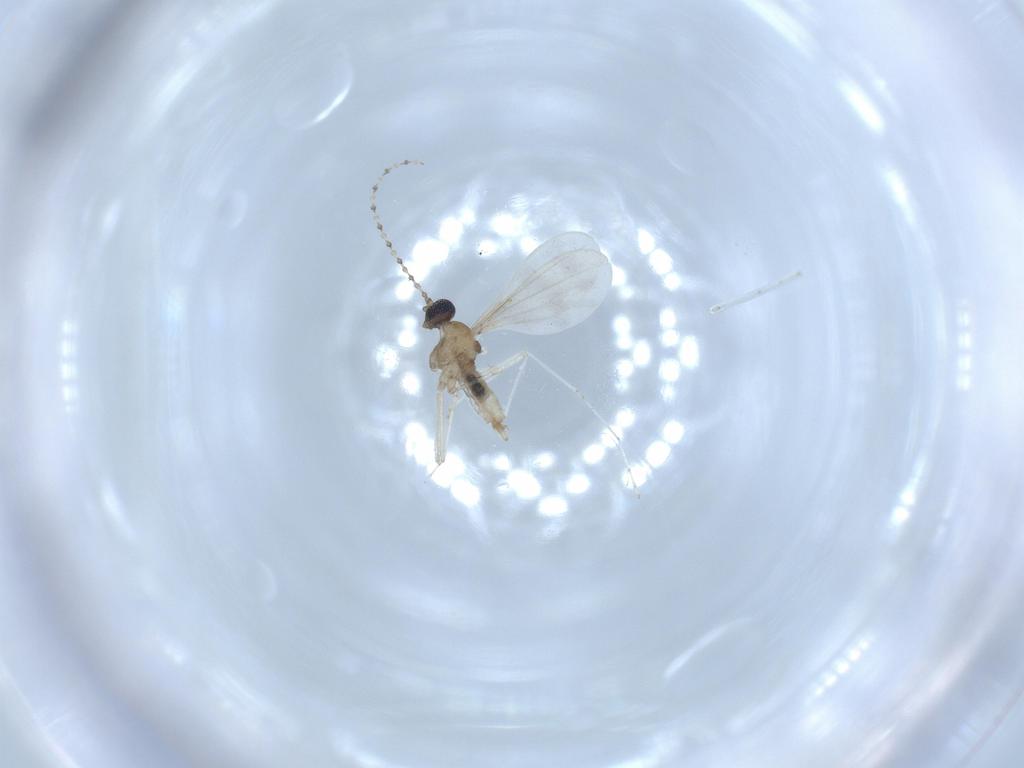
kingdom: Animalia
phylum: Arthropoda
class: Insecta
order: Diptera
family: Cecidomyiidae
